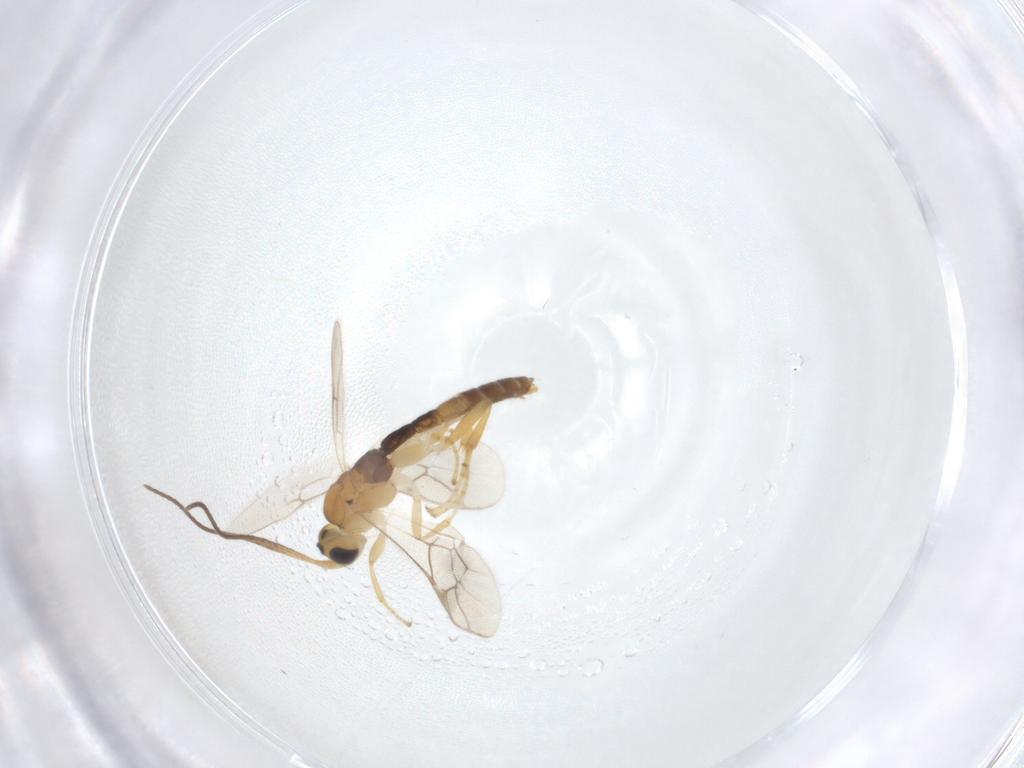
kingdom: Animalia
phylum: Arthropoda
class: Insecta
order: Hymenoptera
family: Ichneumonidae
